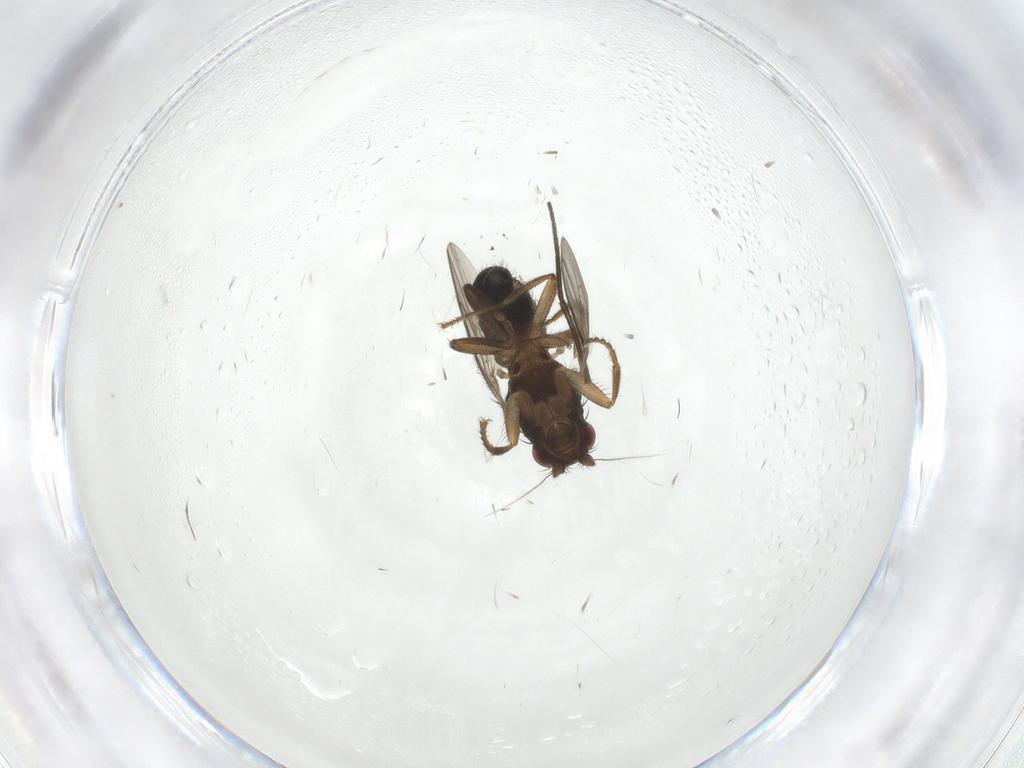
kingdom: Animalia
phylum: Arthropoda
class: Insecta
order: Diptera
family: Sphaeroceridae
